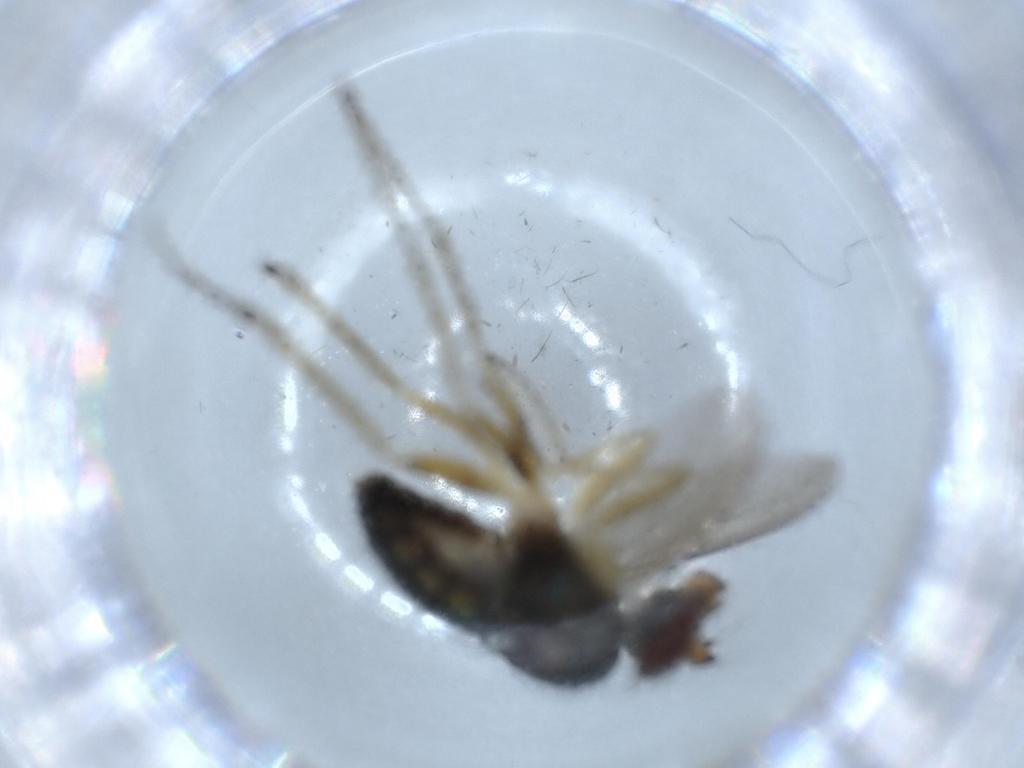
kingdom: Animalia
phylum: Arthropoda
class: Insecta
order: Diptera
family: Dolichopodidae
